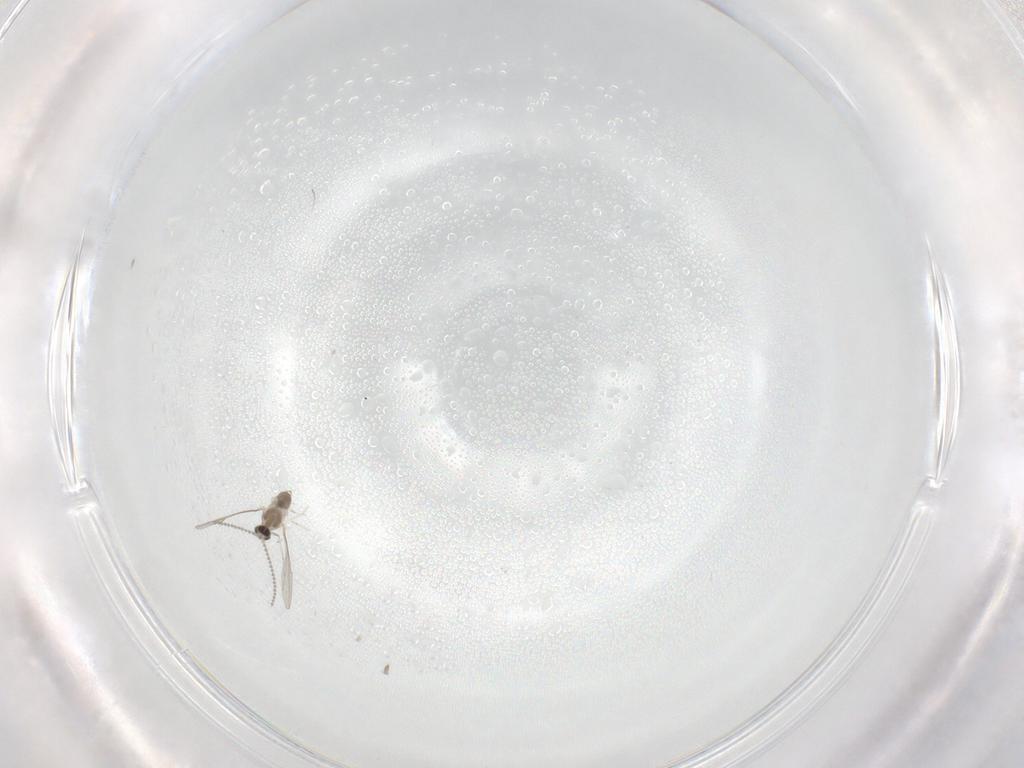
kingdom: Animalia
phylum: Arthropoda
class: Insecta
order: Diptera
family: Cecidomyiidae
